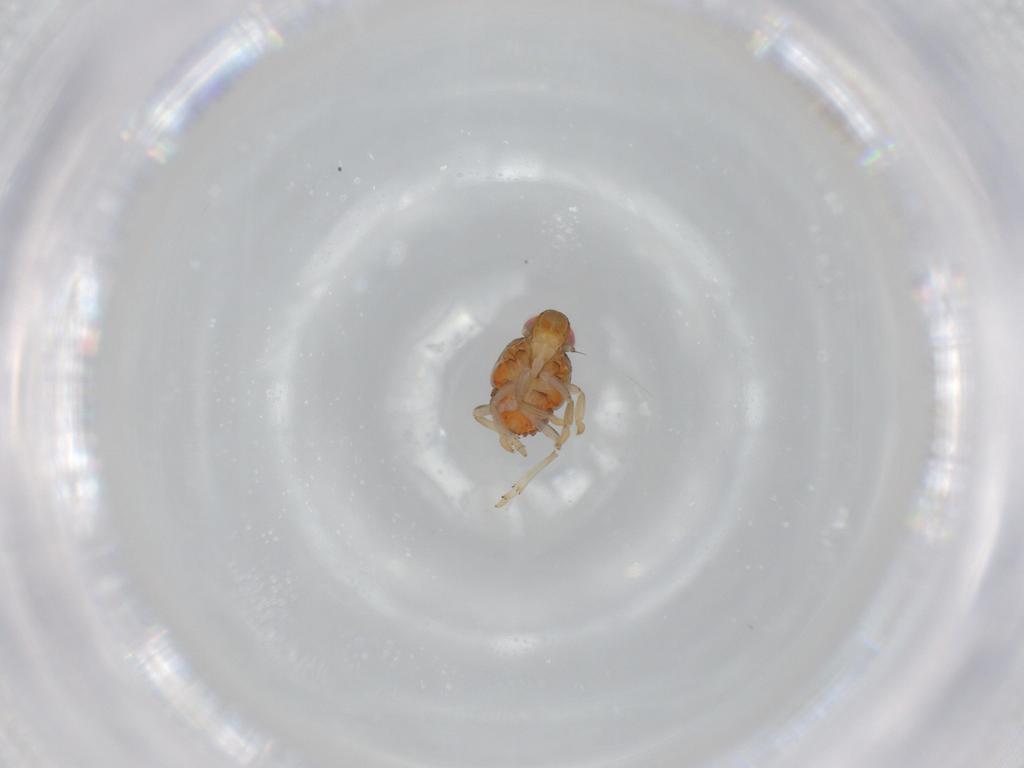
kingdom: Animalia
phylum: Arthropoda
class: Insecta
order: Hemiptera
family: Issidae
